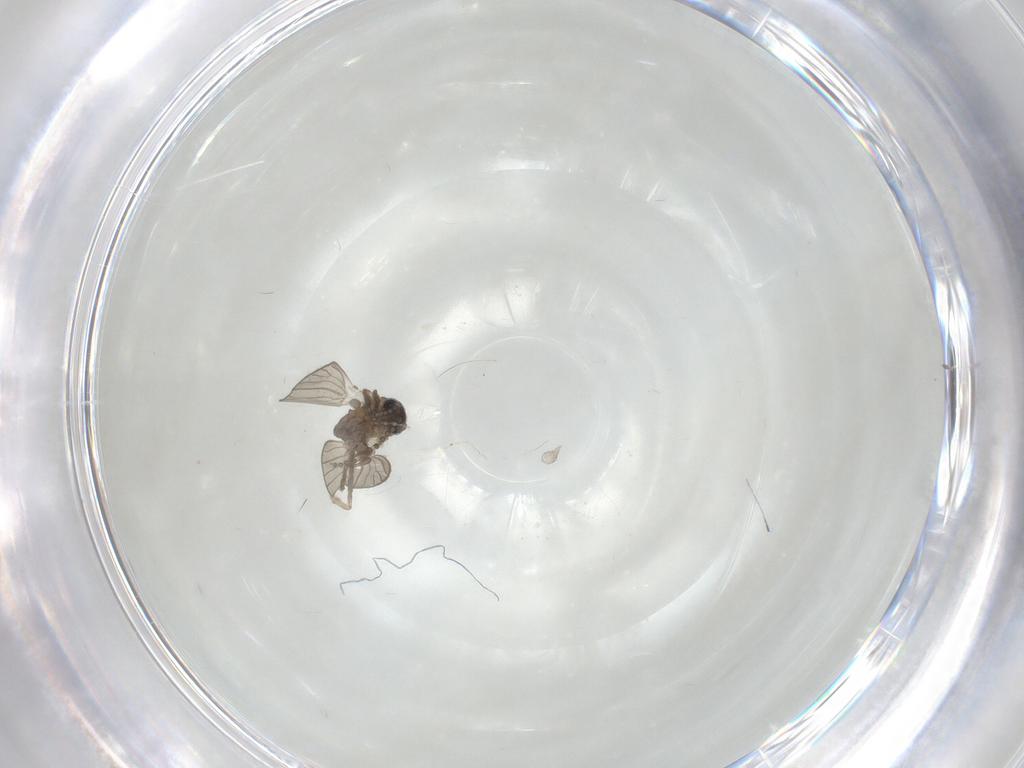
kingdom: Animalia
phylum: Arthropoda
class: Insecta
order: Diptera
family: Psychodidae
